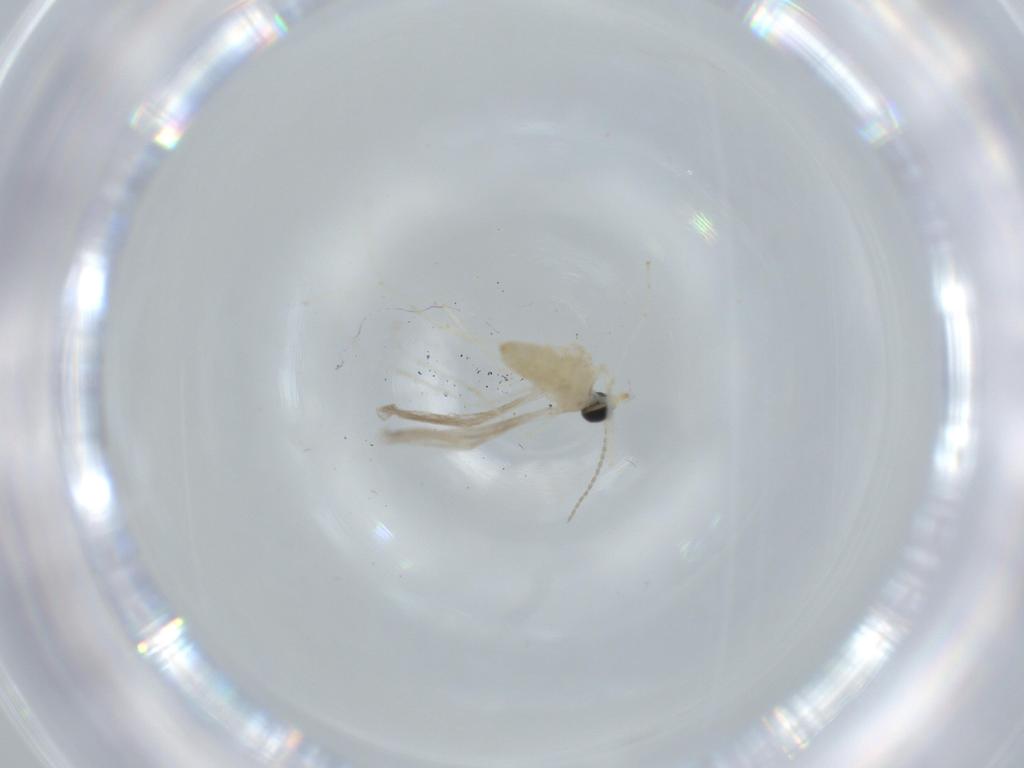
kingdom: Animalia
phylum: Arthropoda
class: Insecta
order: Diptera
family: Cecidomyiidae
